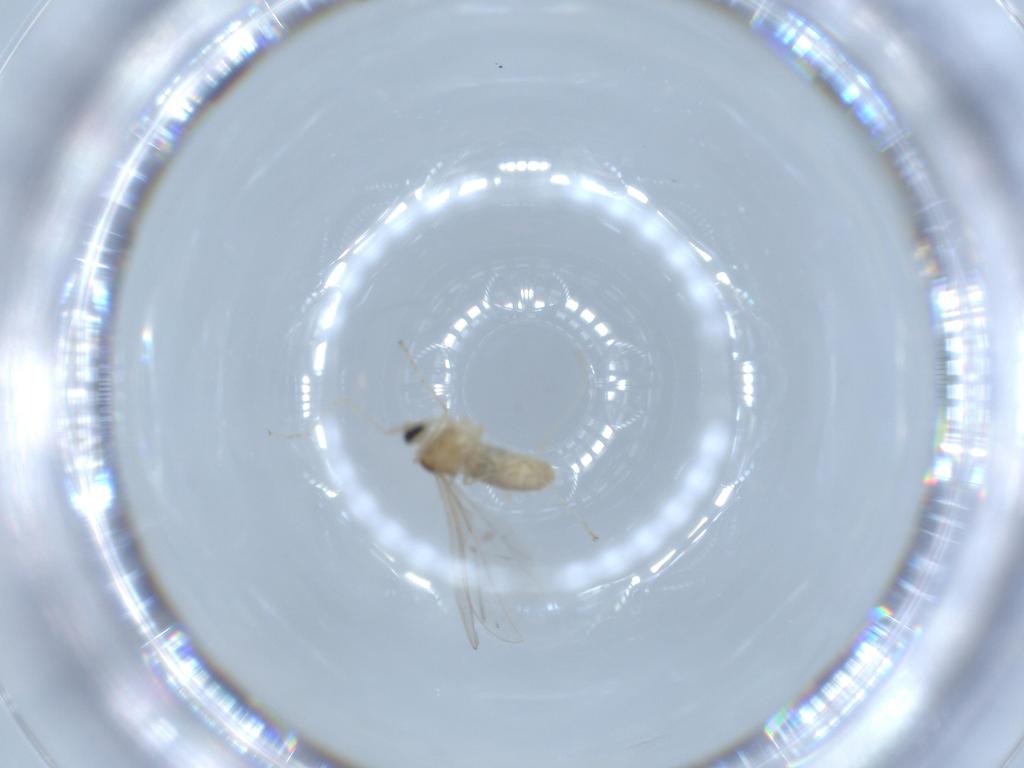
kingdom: Animalia
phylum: Arthropoda
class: Insecta
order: Diptera
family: Cecidomyiidae
